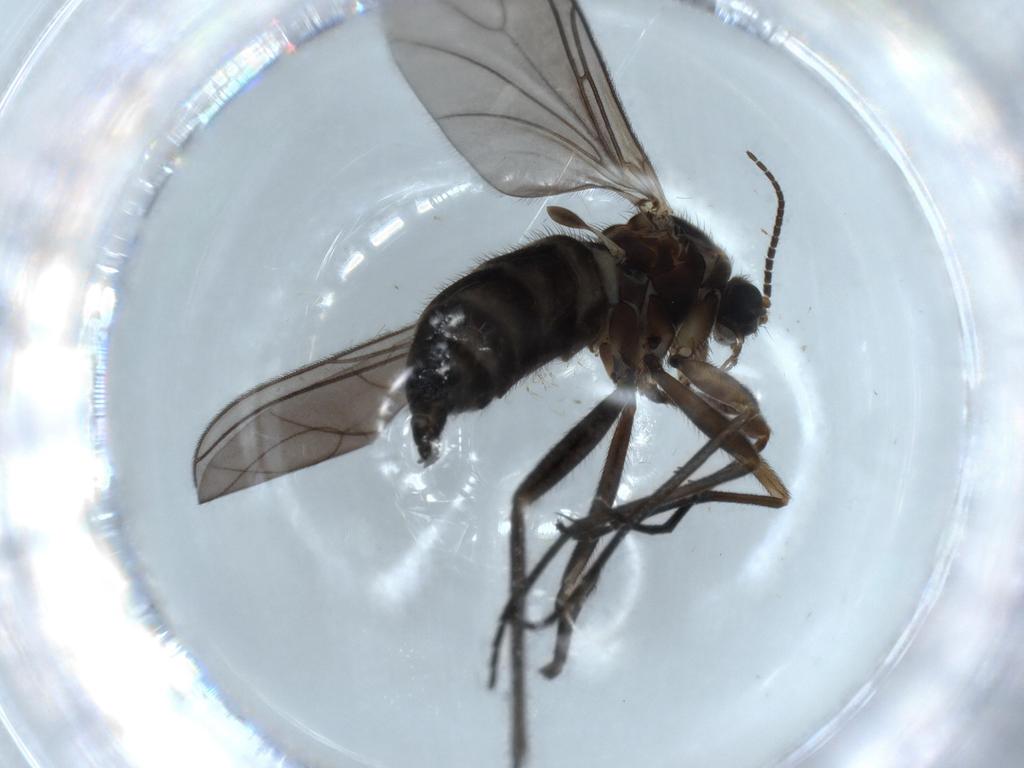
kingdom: Animalia
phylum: Arthropoda
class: Insecta
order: Diptera
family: Sciaridae
